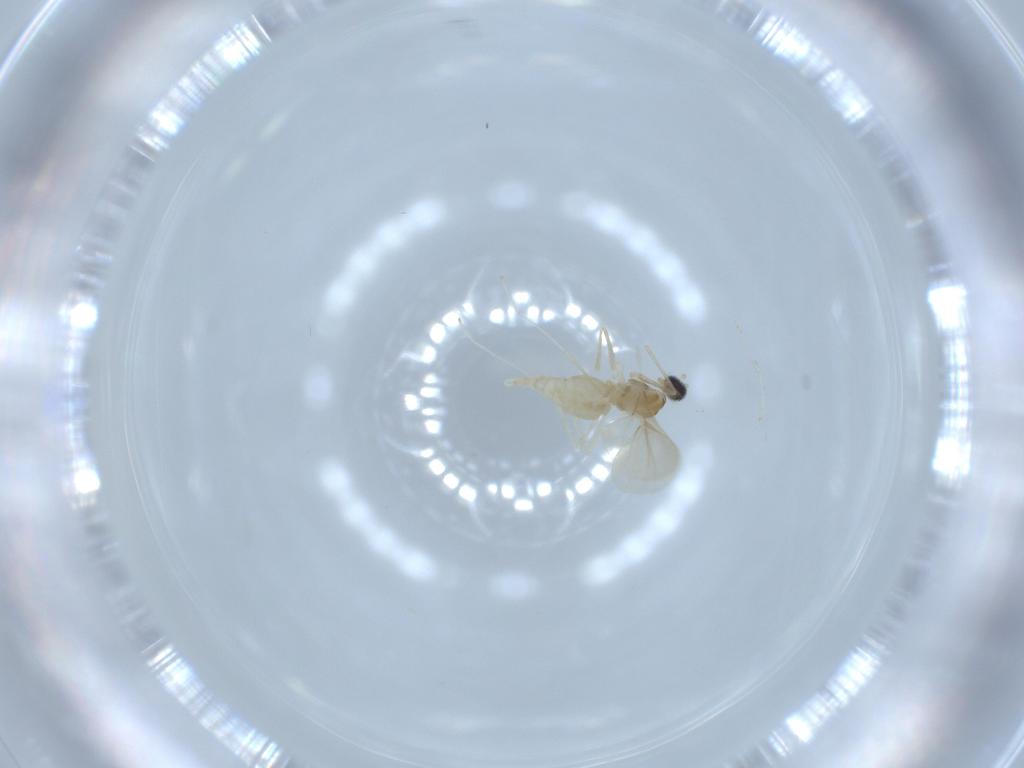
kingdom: Animalia
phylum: Arthropoda
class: Insecta
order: Diptera
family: Cecidomyiidae
